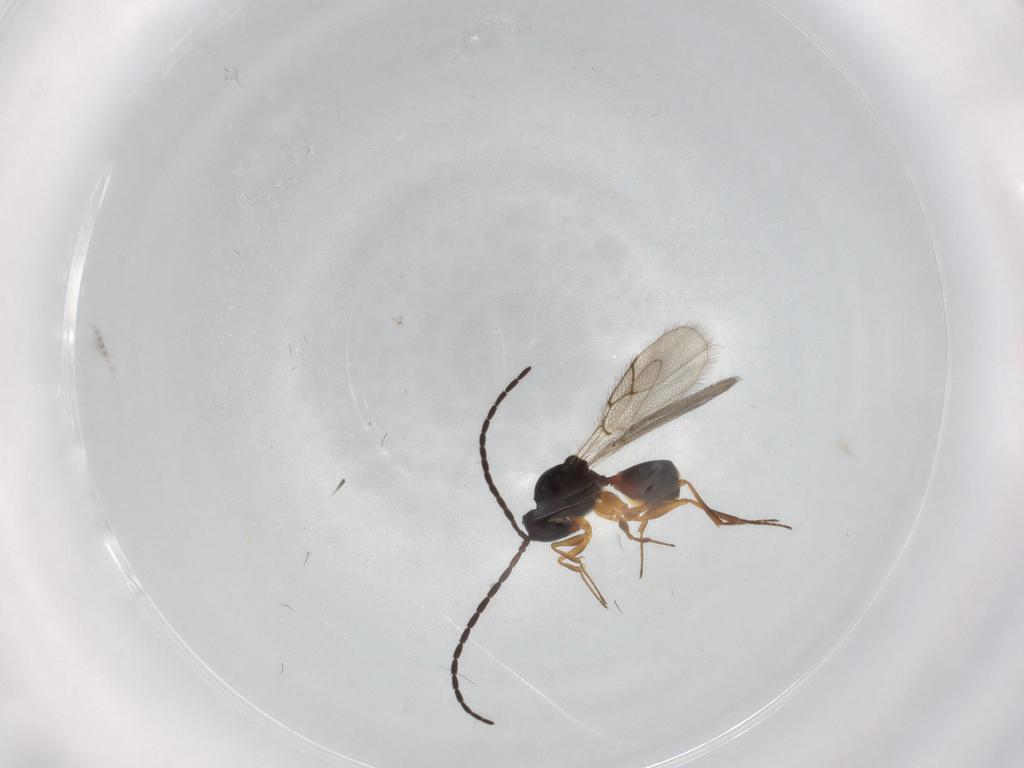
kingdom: Animalia
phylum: Arthropoda
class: Insecta
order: Hymenoptera
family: Figitidae
